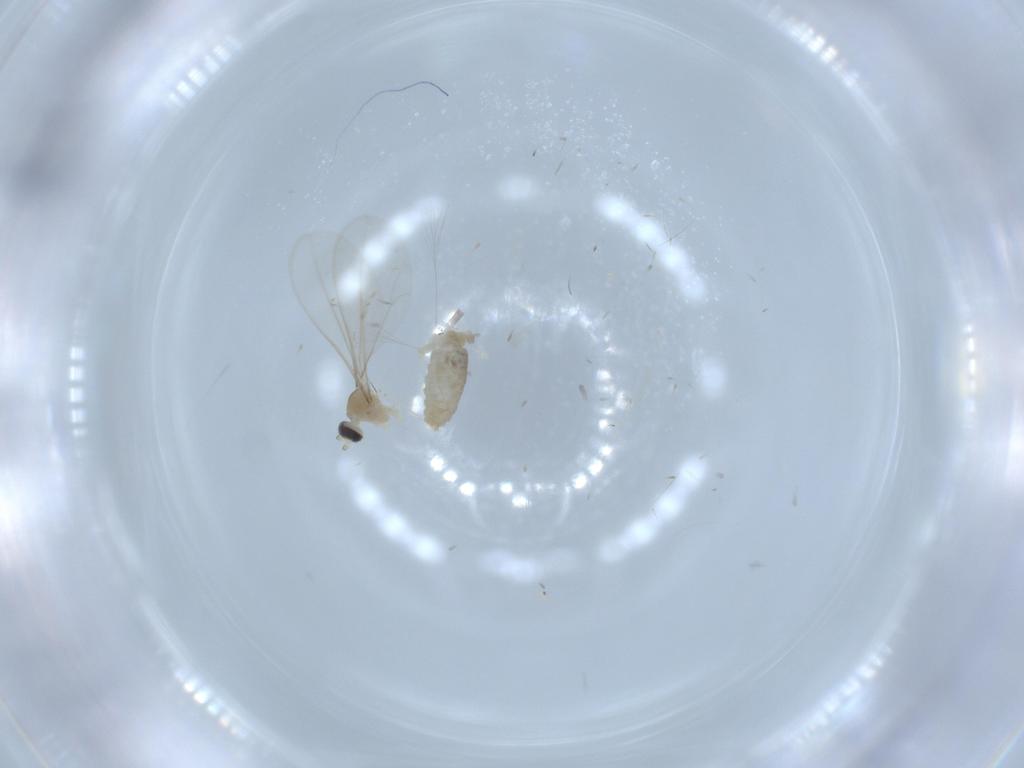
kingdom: Animalia
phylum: Arthropoda
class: Insecta
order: Diptera
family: Cecidomyiidae
